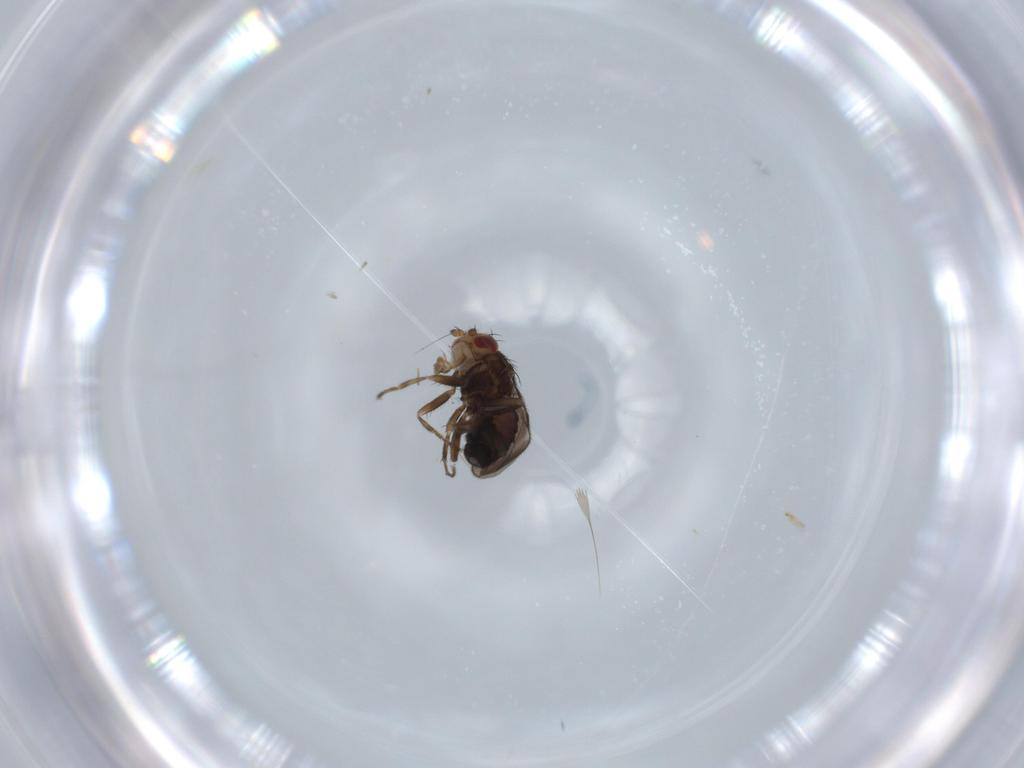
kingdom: Animalia
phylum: Arthropoda
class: Insecta
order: Diptera
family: Sphaeroceridae
